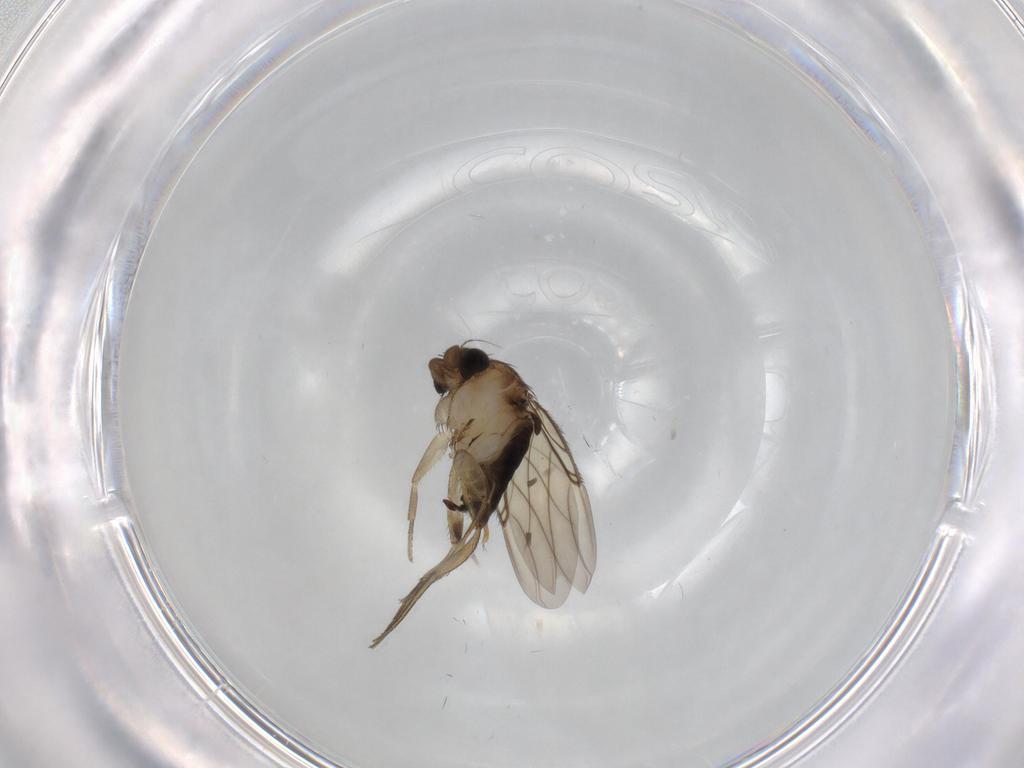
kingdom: Animalia
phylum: Arthropoda
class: Insecta
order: Diptera
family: Phoridae
